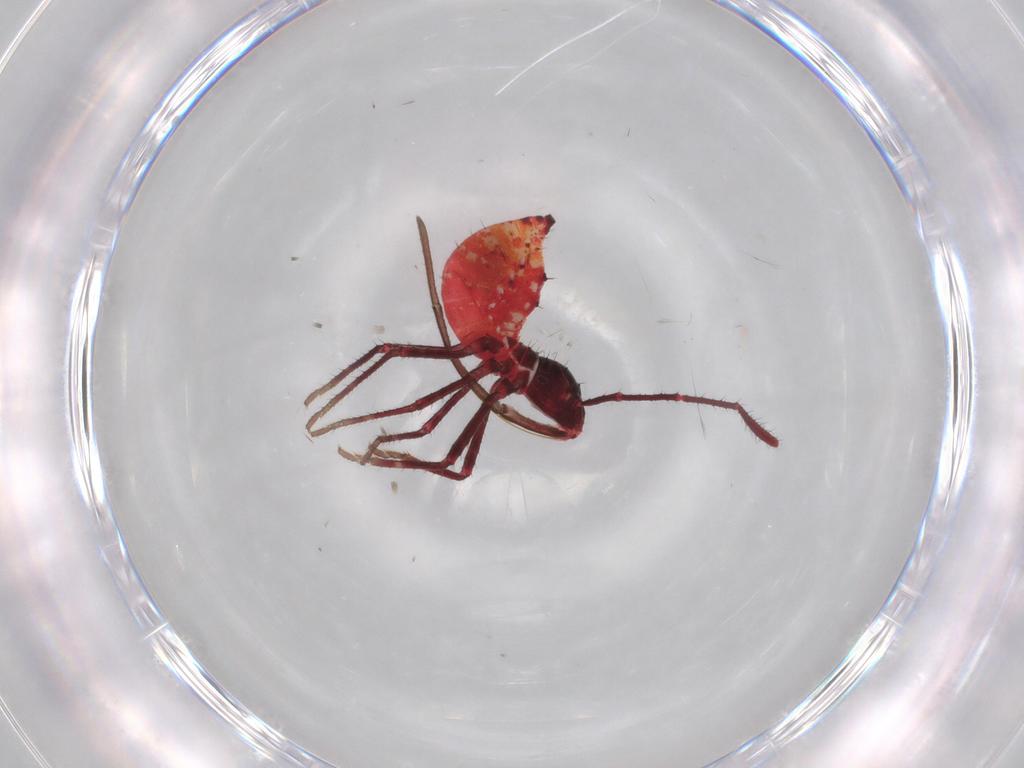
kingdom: Animalia
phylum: Arthropoda
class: Insecta
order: Hemiptera
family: Coreidae
